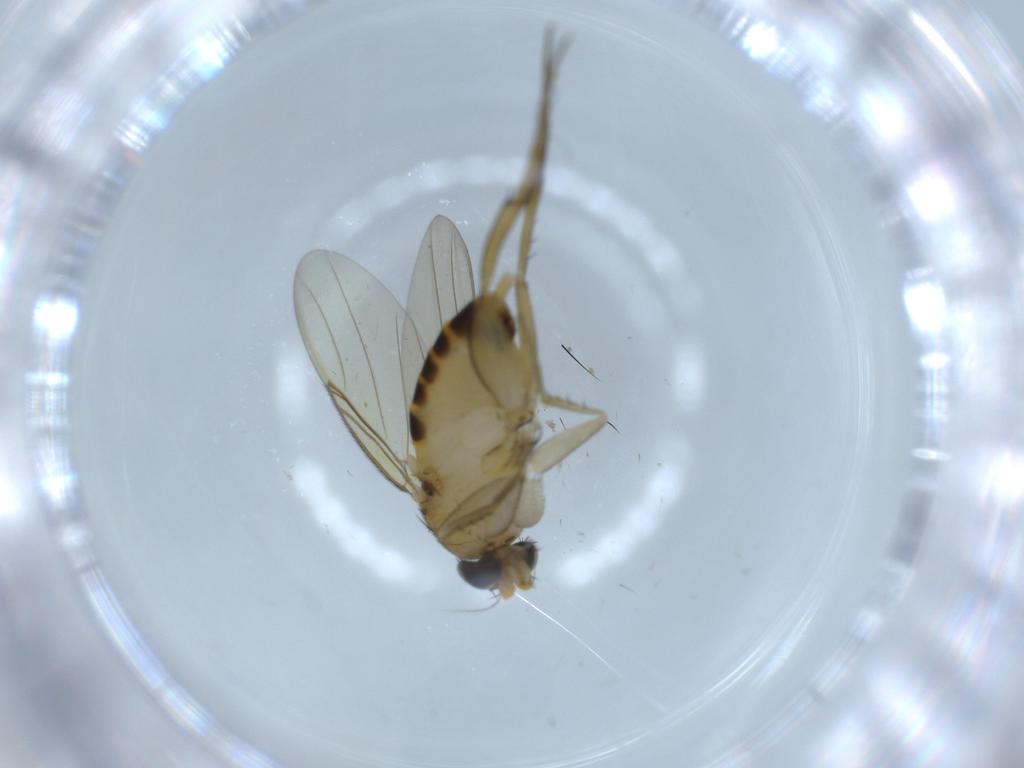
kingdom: Animalia
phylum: Arthropoda
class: Insecta
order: Diptera
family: Phoridae
